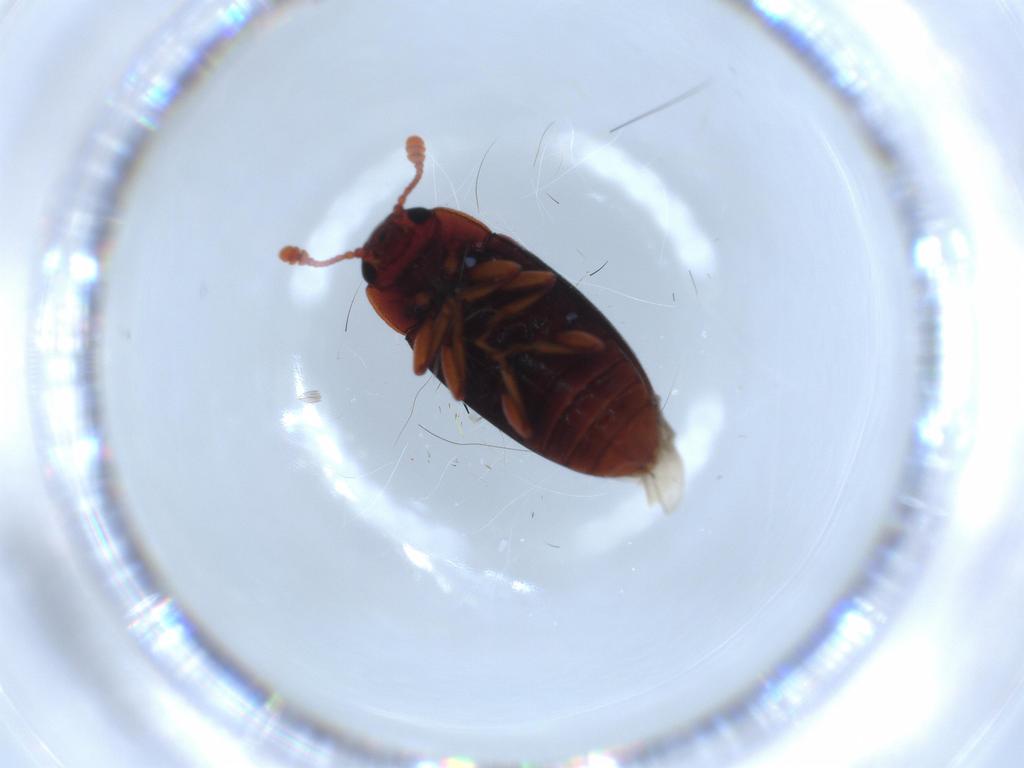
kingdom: Animalia
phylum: Arthropoda
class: Insecta
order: Coleoptera
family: Erotylidae
